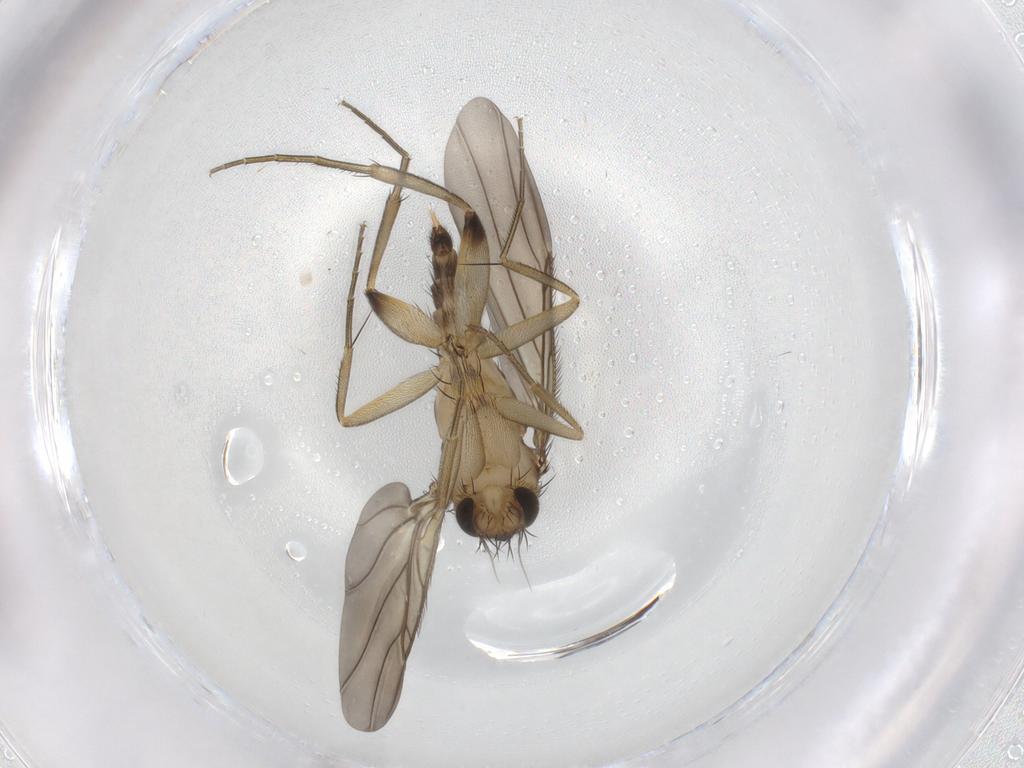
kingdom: Animalia
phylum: Arthropoda
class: Insecta
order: Diptera
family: Phoridae
